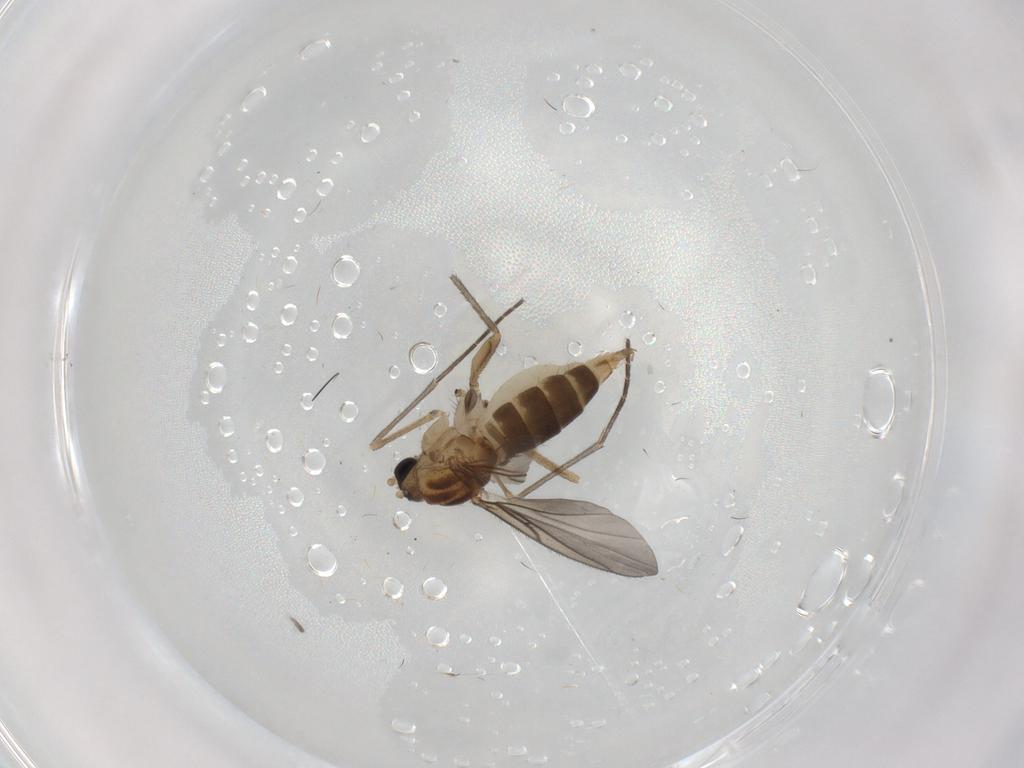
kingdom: Animalia
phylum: Arthropoda
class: Insecta
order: Diptera
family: Sciaridae
